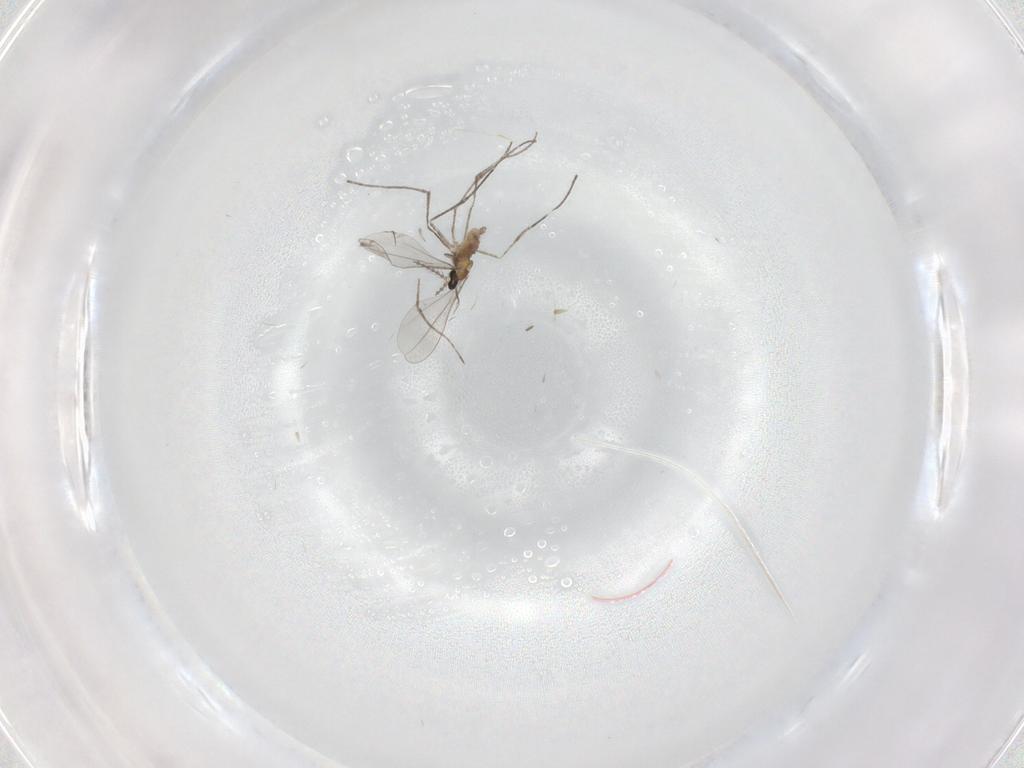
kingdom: Animalia
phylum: Arthropoda
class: Insecta
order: Diptera
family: Cecidomyiidae
